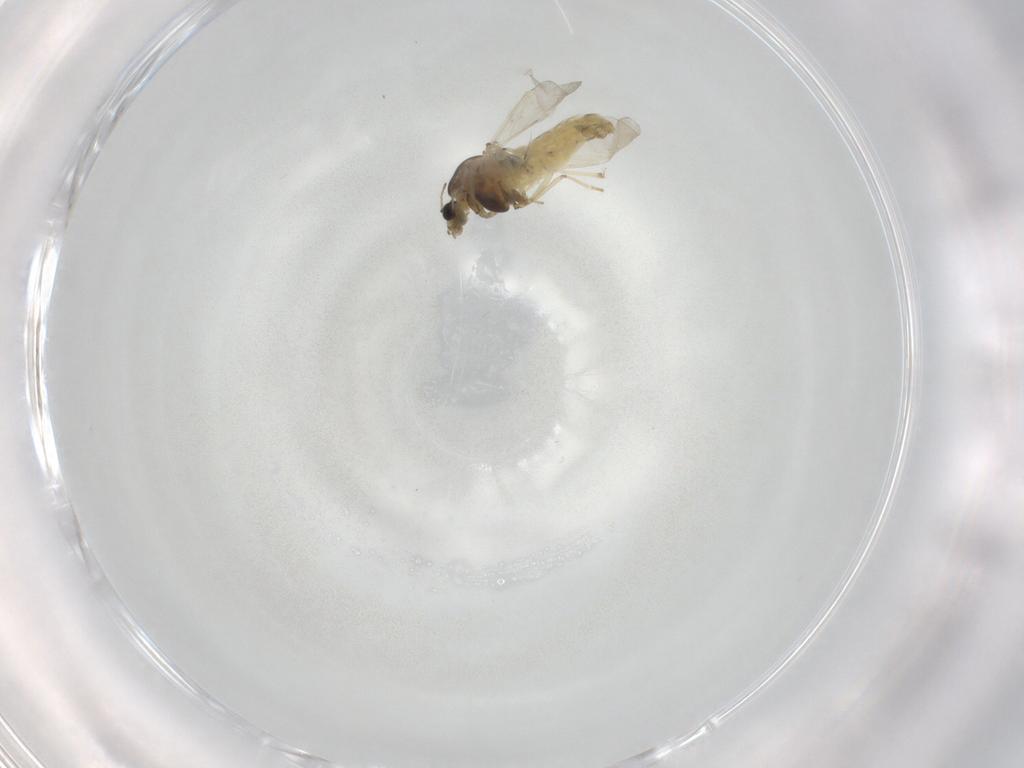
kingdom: Animalia
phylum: Arthropoda
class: Insecta
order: Diptera
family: Chironomidae
